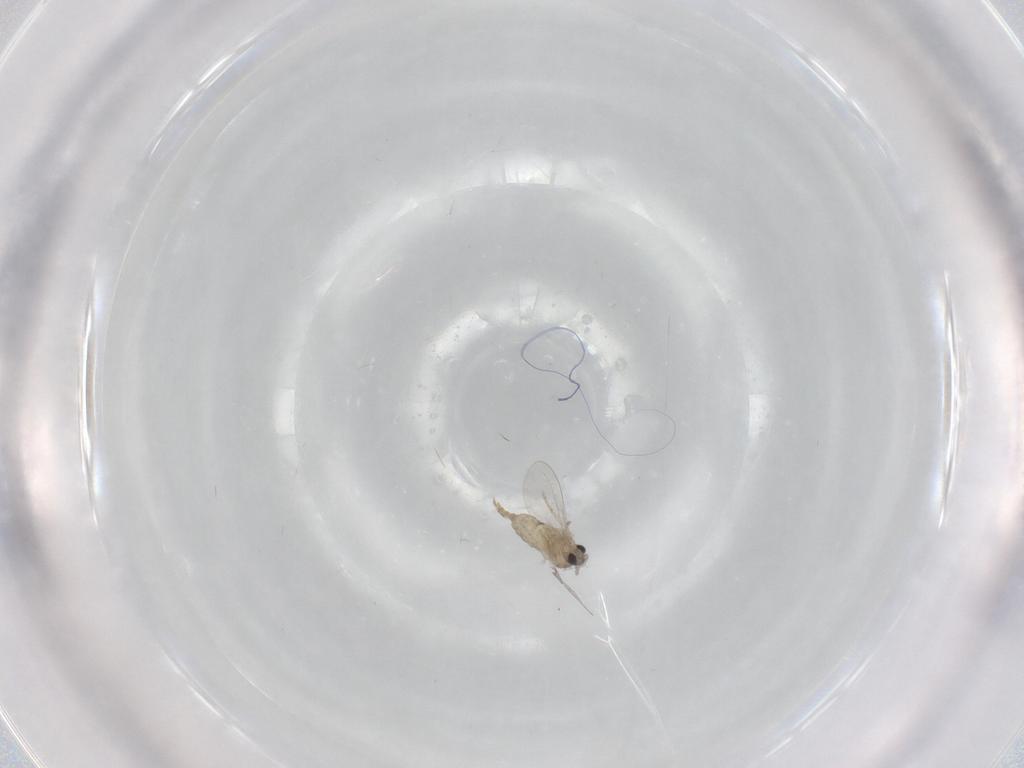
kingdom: Animalia
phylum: Arthropoda
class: Insecta
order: Diptera
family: Cecidomyiidae
